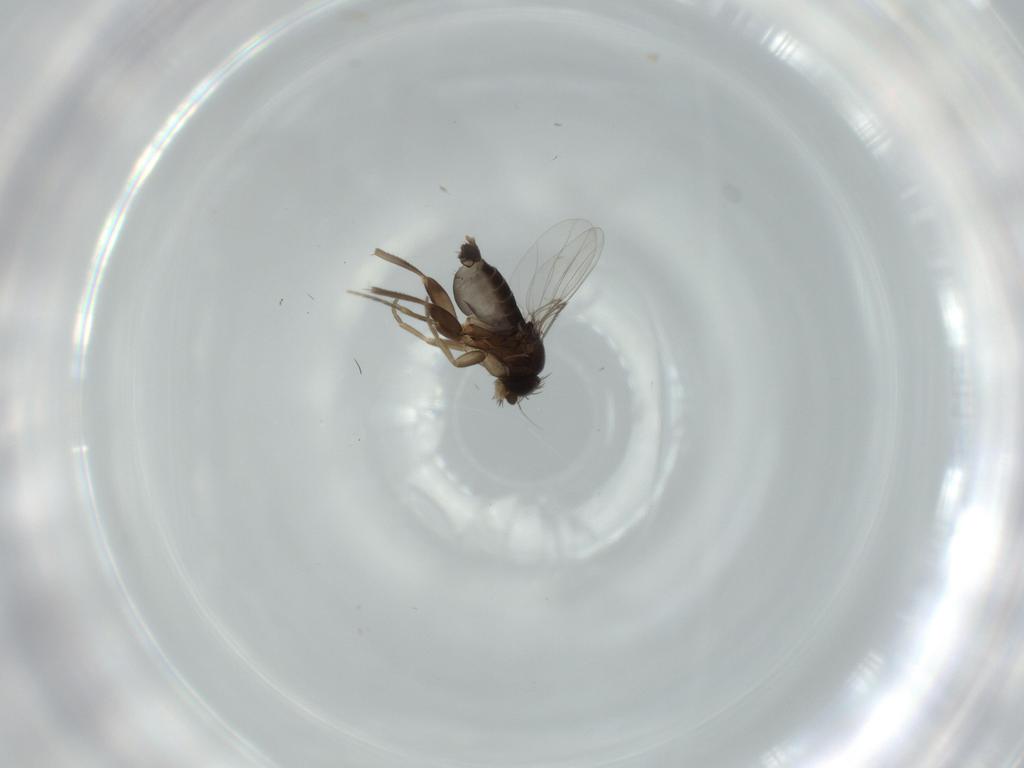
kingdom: Animalia
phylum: Arthropoda
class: Insecta
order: Diptera
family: Phoridae
